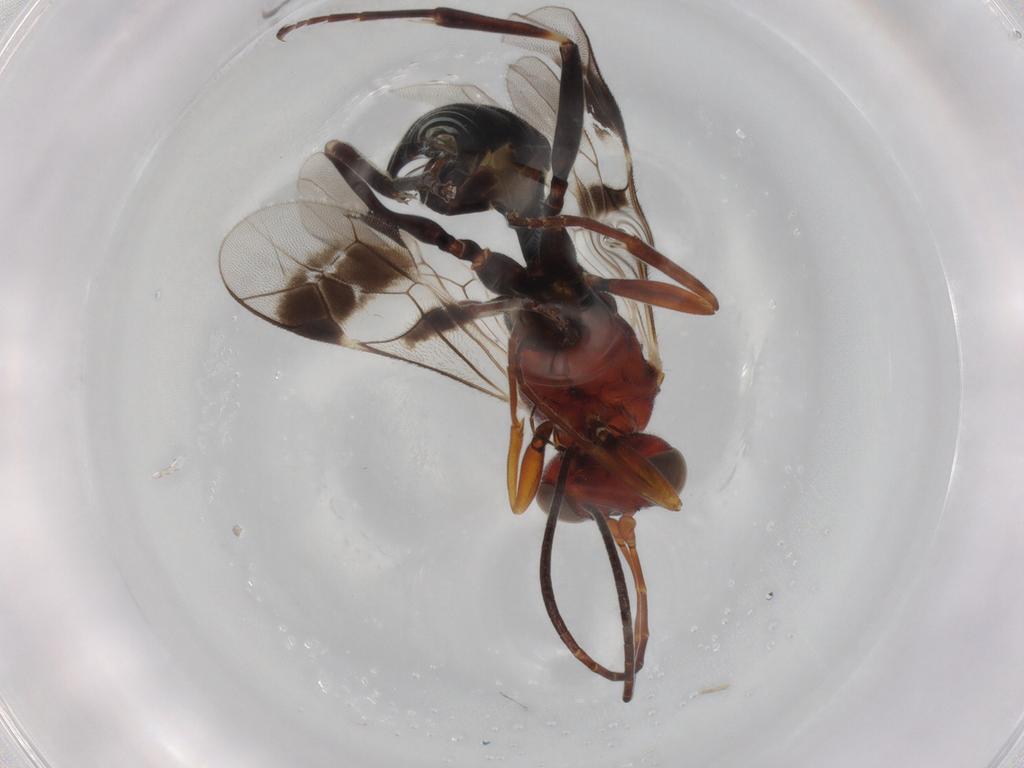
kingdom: Animalia
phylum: Arthropoda
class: Insecta
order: Hymenoptera
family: Ichneumonidae
